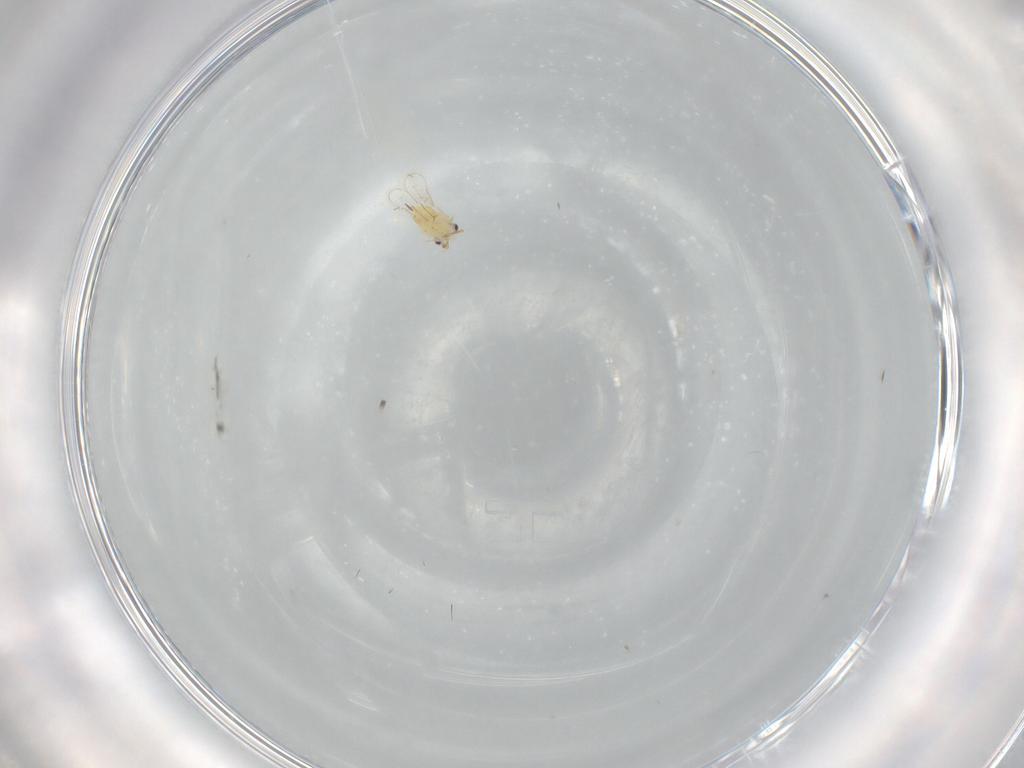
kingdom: Animalia
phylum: Arthropoda
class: Insecta
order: Hymenoptera
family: Aphelinidae
